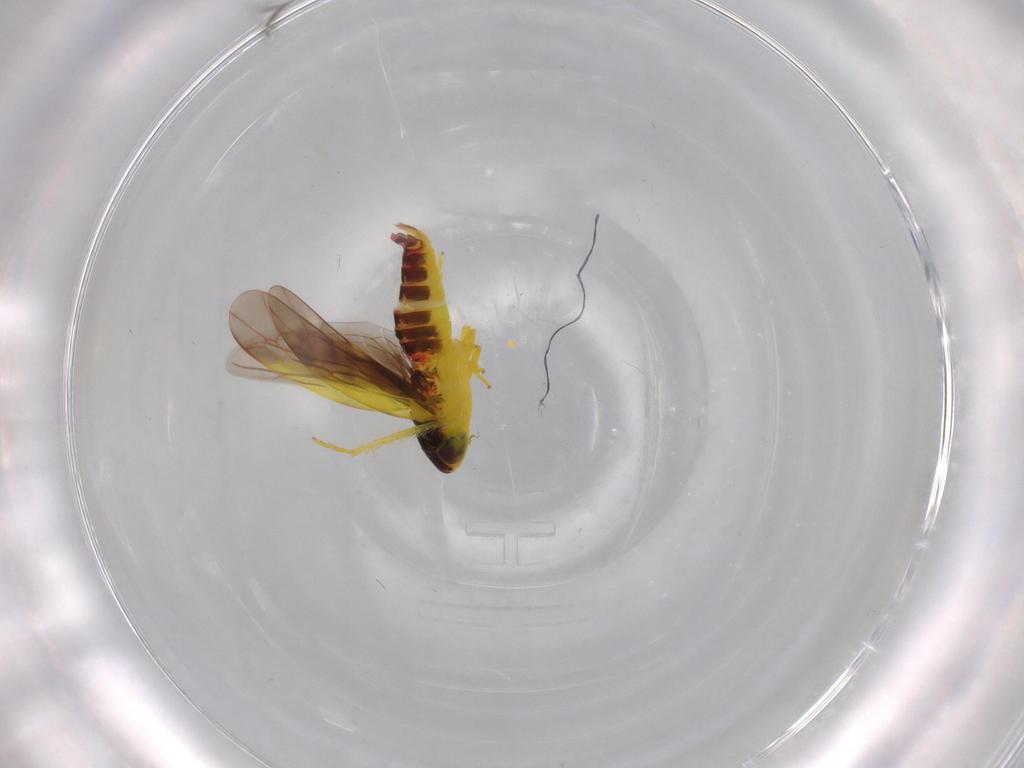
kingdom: Animalia
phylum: Arthropoda
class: Insecta
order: Hemiptera
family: Cicadellidae
